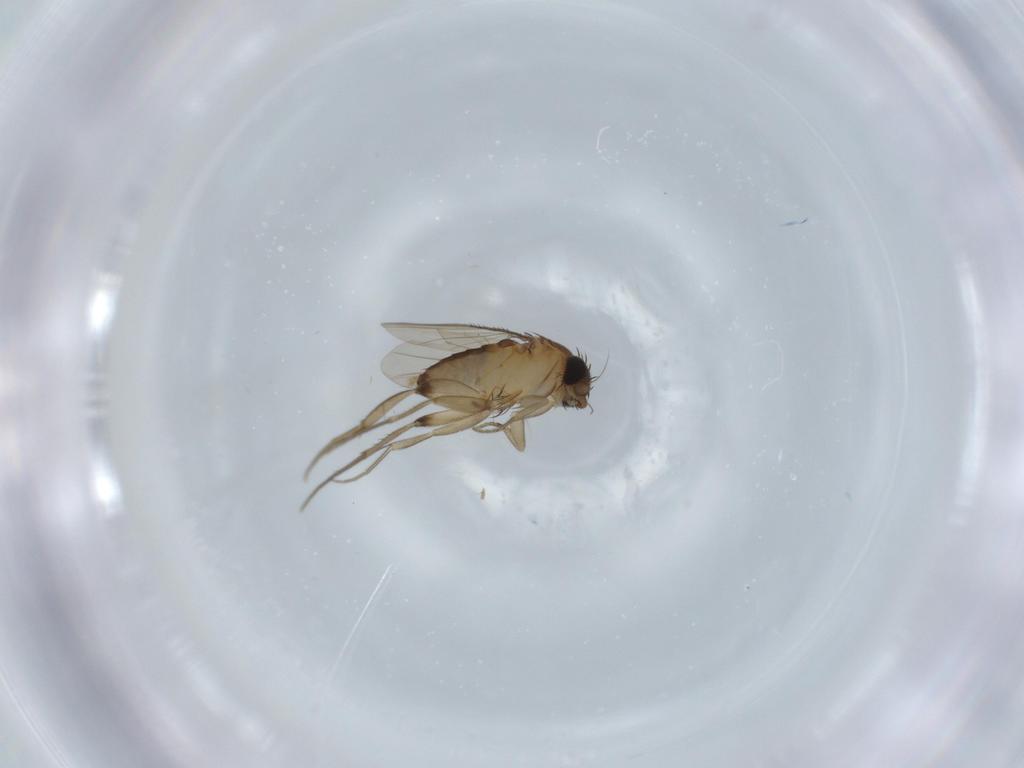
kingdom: Animalia
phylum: Arthropoda
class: Insecta
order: Diptera
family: Phoridae
